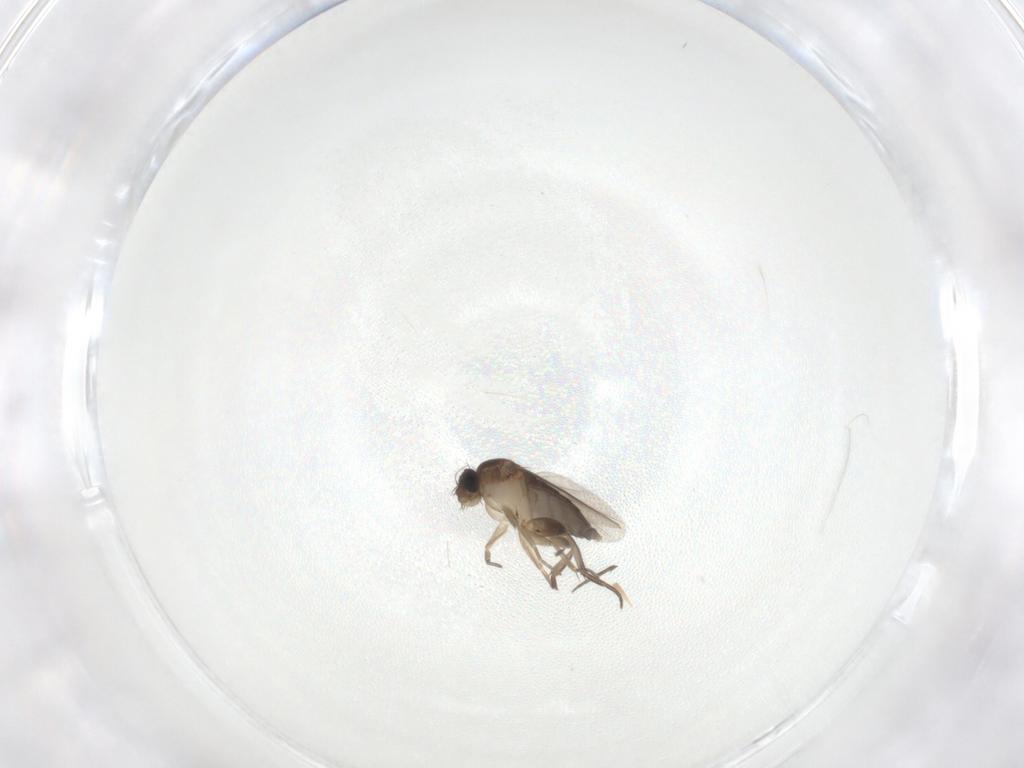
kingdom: Animalia
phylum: Arthropoda
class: Insecta
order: Diptera
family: Phoridae
